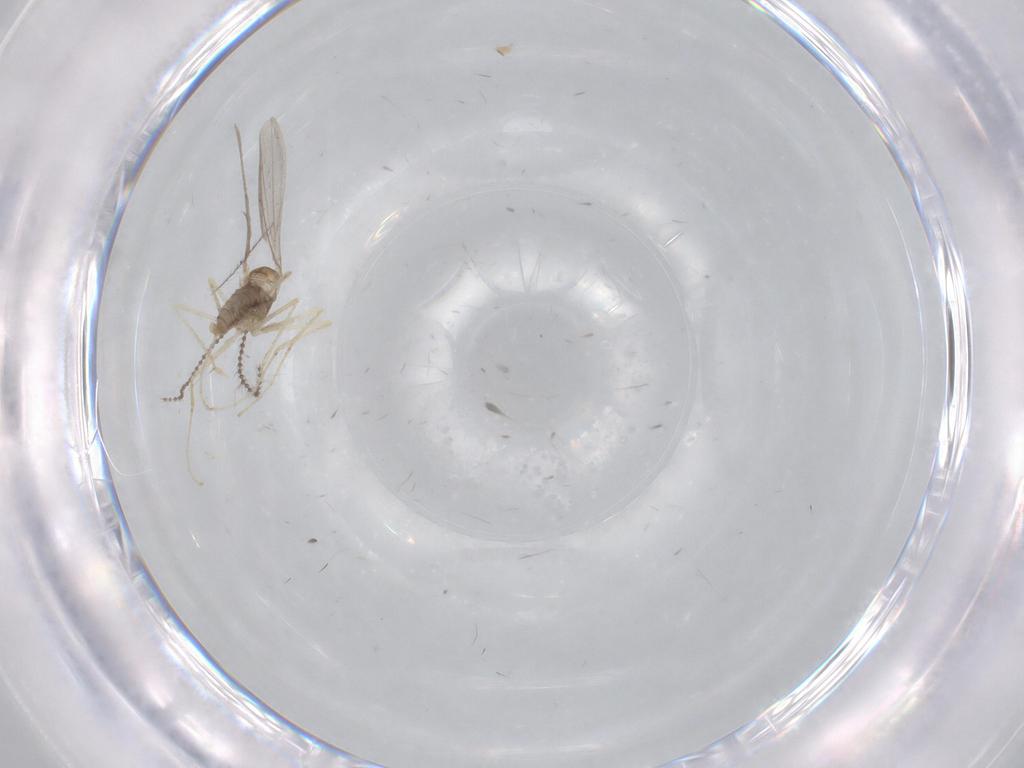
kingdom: Animalia
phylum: Arthropoda
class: Insecta
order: Diptera
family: Cecidomyiidae
